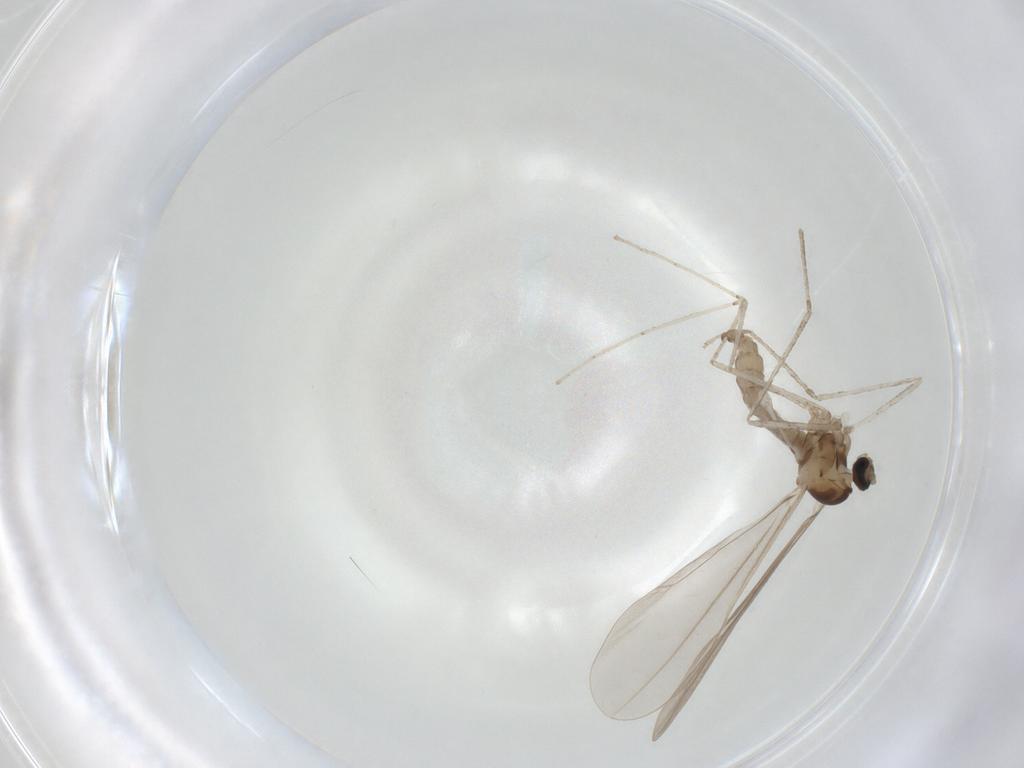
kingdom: Animalia
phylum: Arthropoda
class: Insecta
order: Diptera
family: Cecidomyiidae
